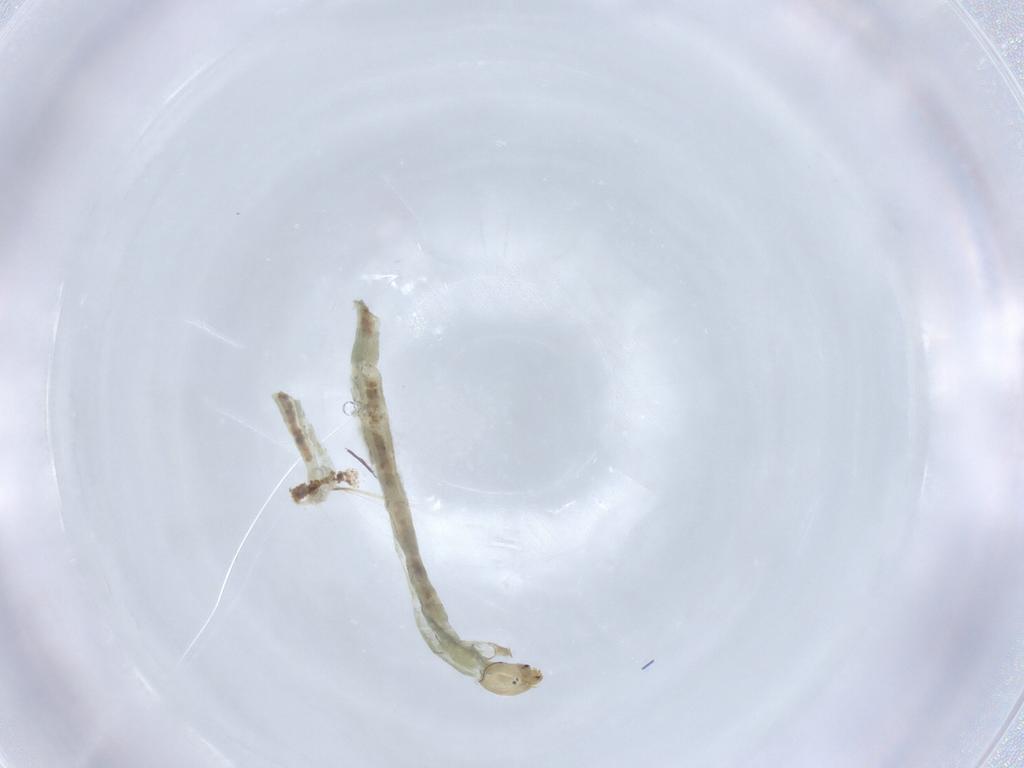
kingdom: Animalia
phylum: Arthropoda
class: Insecta
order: Diptera
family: Chironomidae
